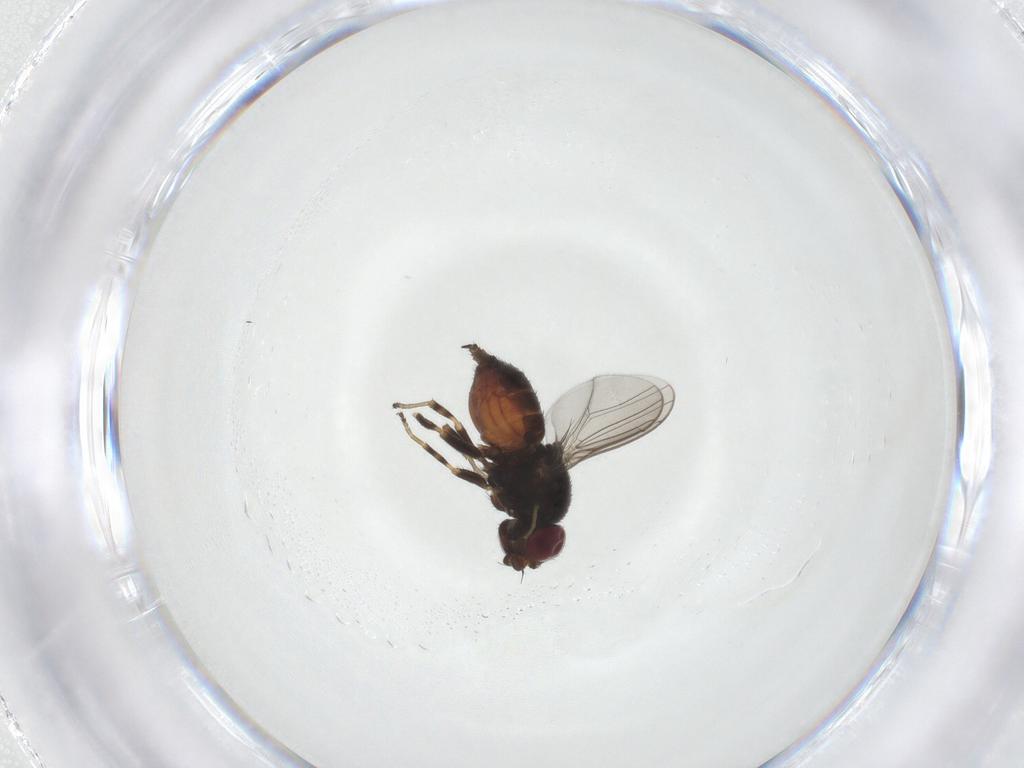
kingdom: Animalia
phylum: Arthropoda
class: Insecta
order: Diptera
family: Chloropidae
